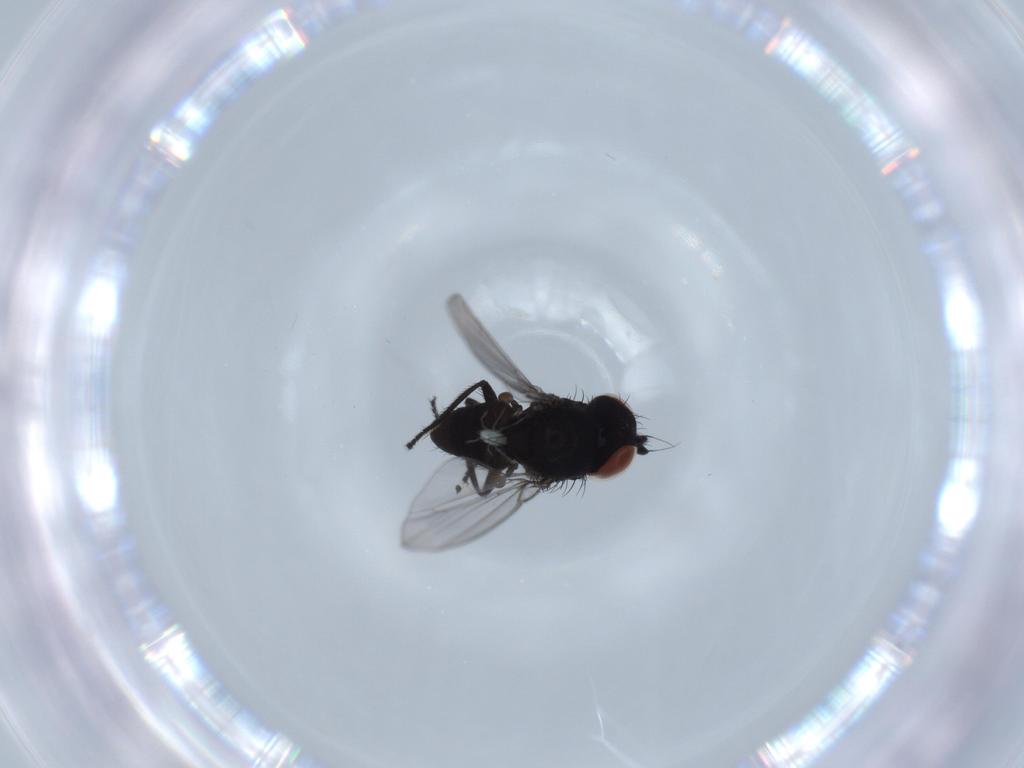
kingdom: Animalia
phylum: Arthropoda
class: Insecta
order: Diptera
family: Milichiidae
